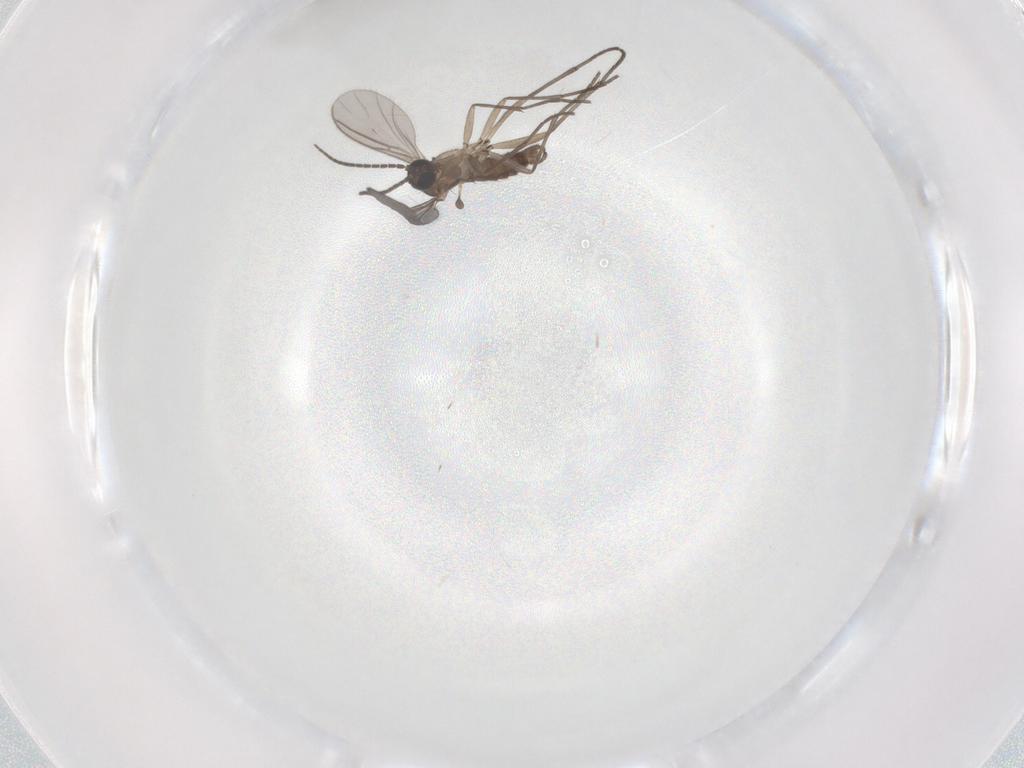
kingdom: Animalia
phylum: Arthropoda
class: Insecta
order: Diptera
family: Sciaridae
